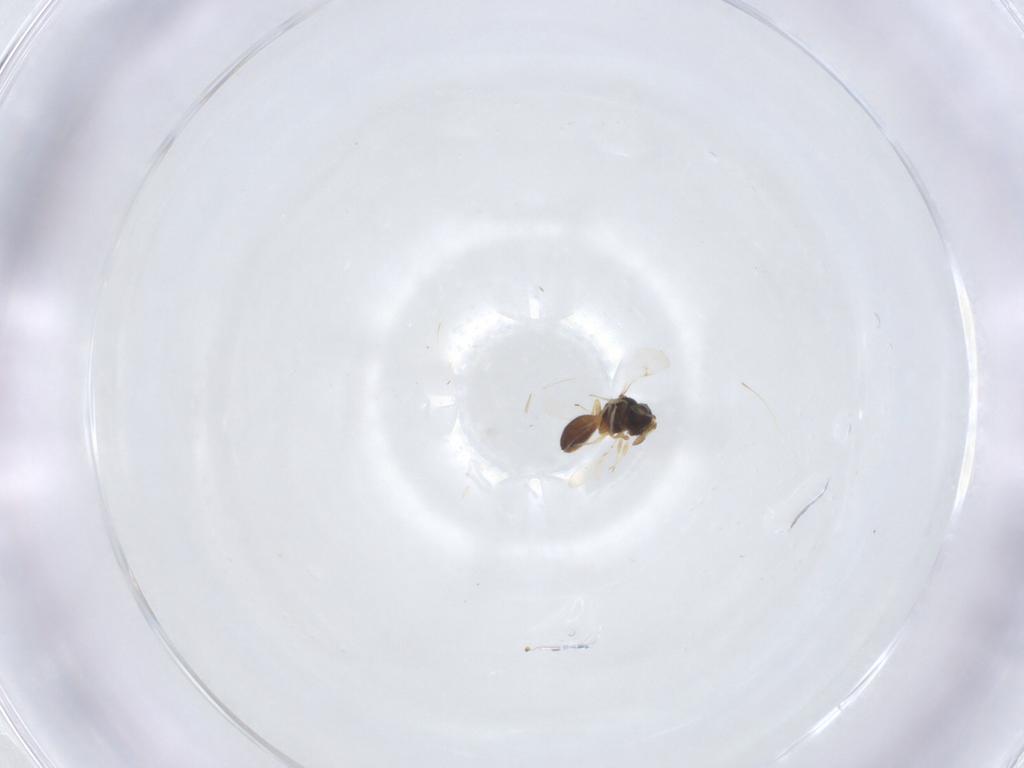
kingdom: Animalia
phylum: Arthropoda
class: Insecta
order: Hymenoptera
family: Scelionidae
